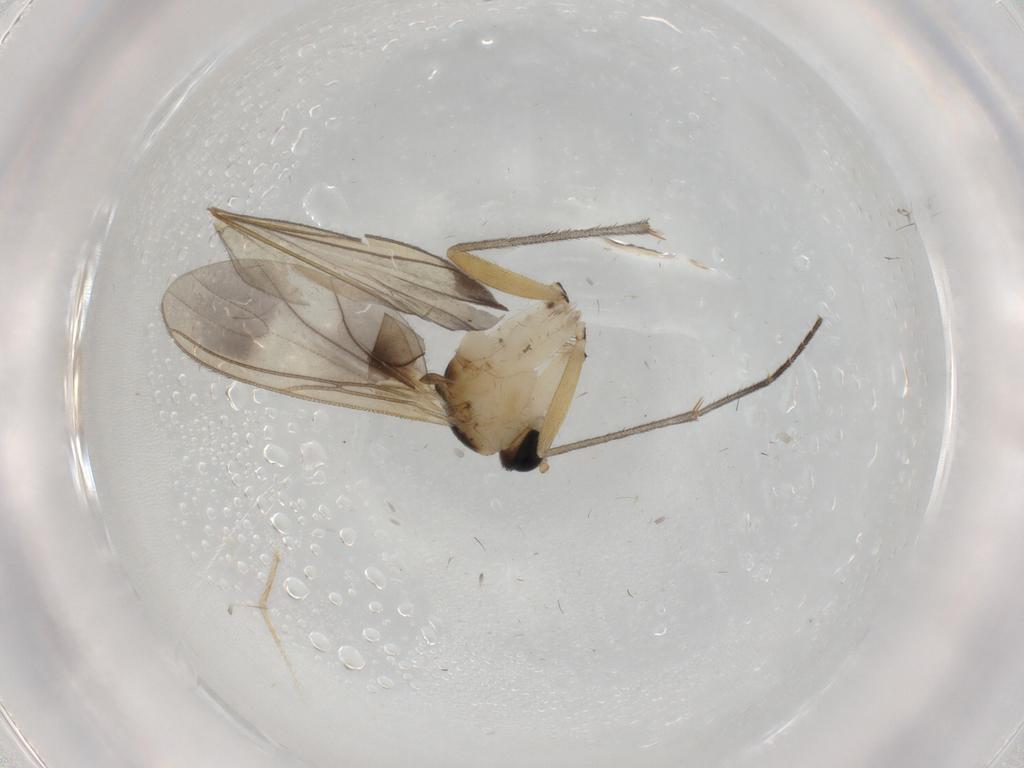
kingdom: Animalia
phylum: Arthropoda
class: Insecta
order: Diptera
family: Sciaridae
